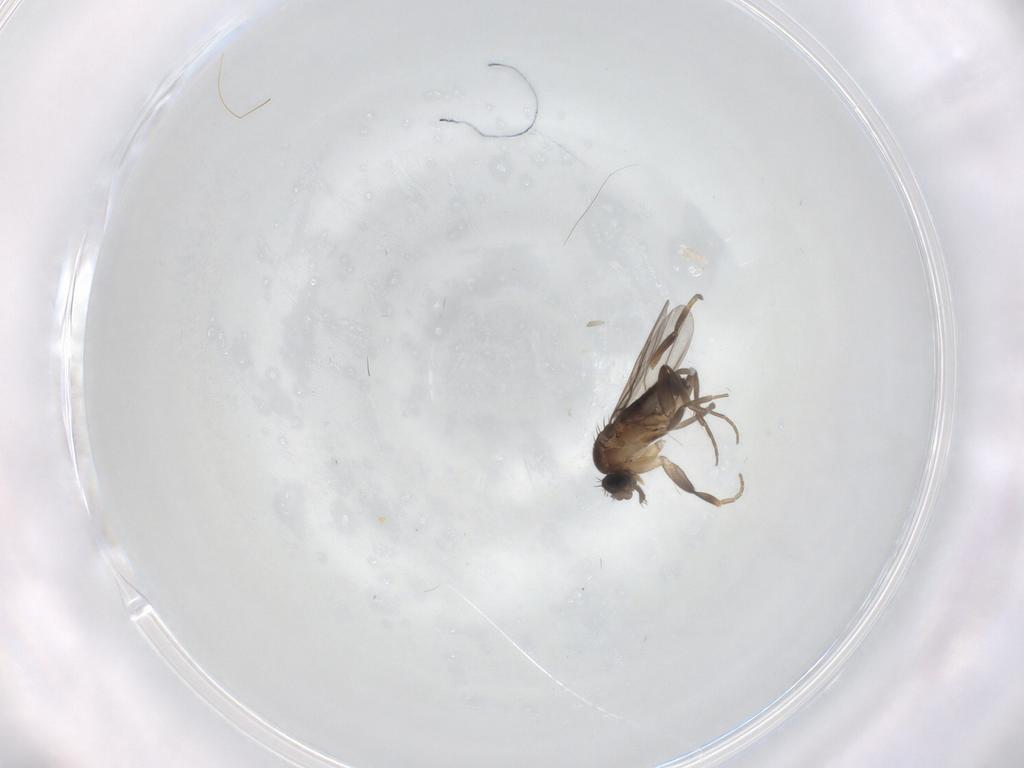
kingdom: Animalia
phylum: Arthropoda
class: Insecta
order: Diptera
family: Phoridae
